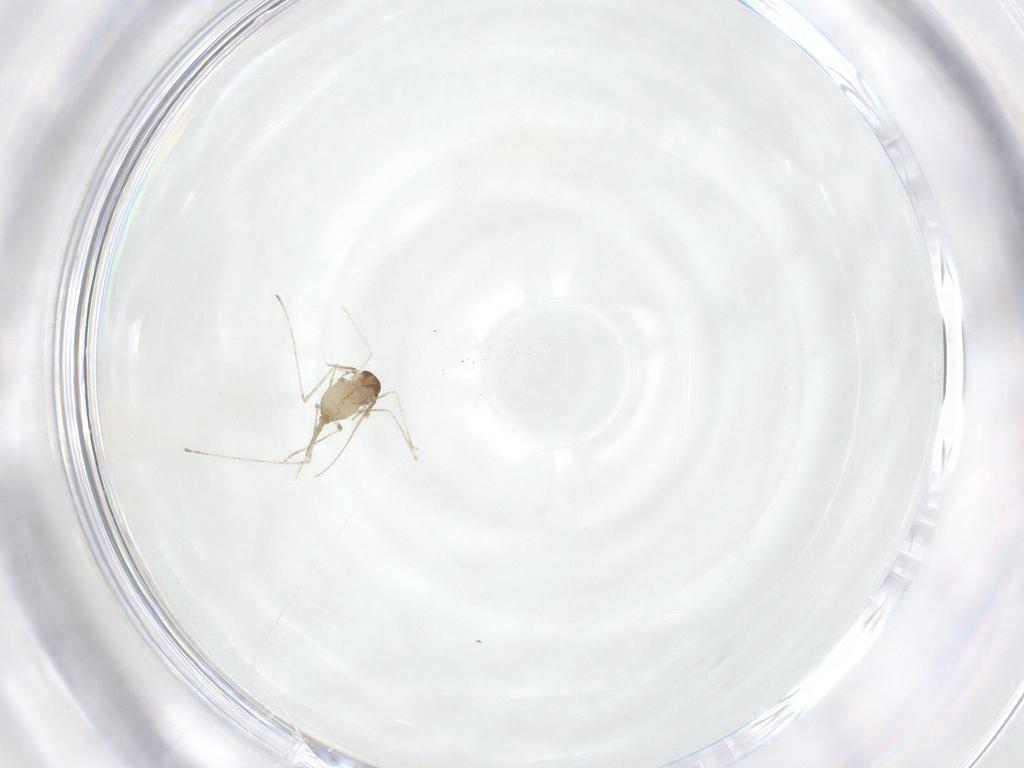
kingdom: Animalia
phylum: Arthropoda
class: Insecta
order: Diptera
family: Cecidomyiidae
